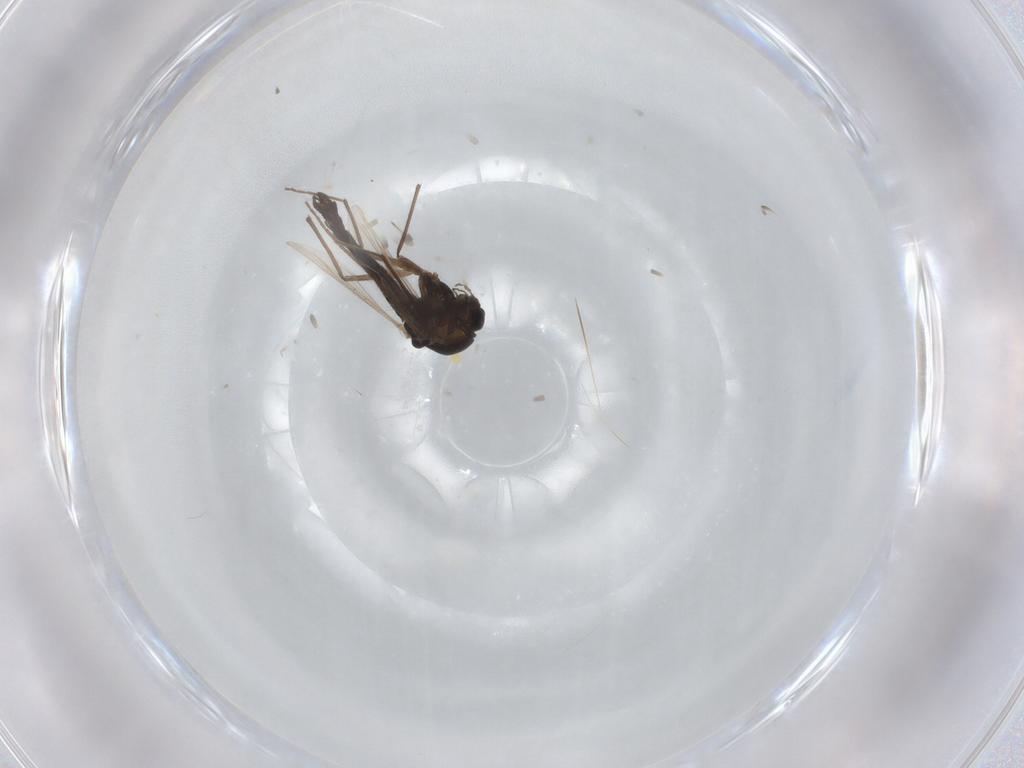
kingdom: Animalia
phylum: Arthropoda
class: Insecta
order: Diptera
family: Chironomidae
